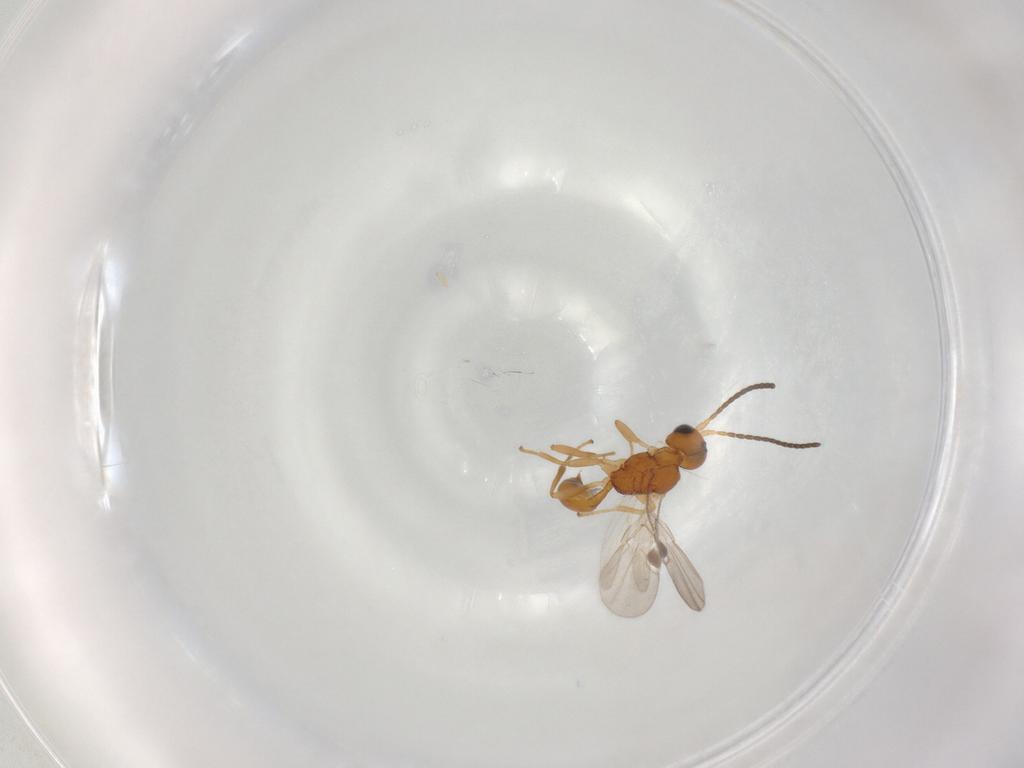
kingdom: Animalia
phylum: Arthropoda
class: Insecta
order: Hymenoptera
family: Braconidae
